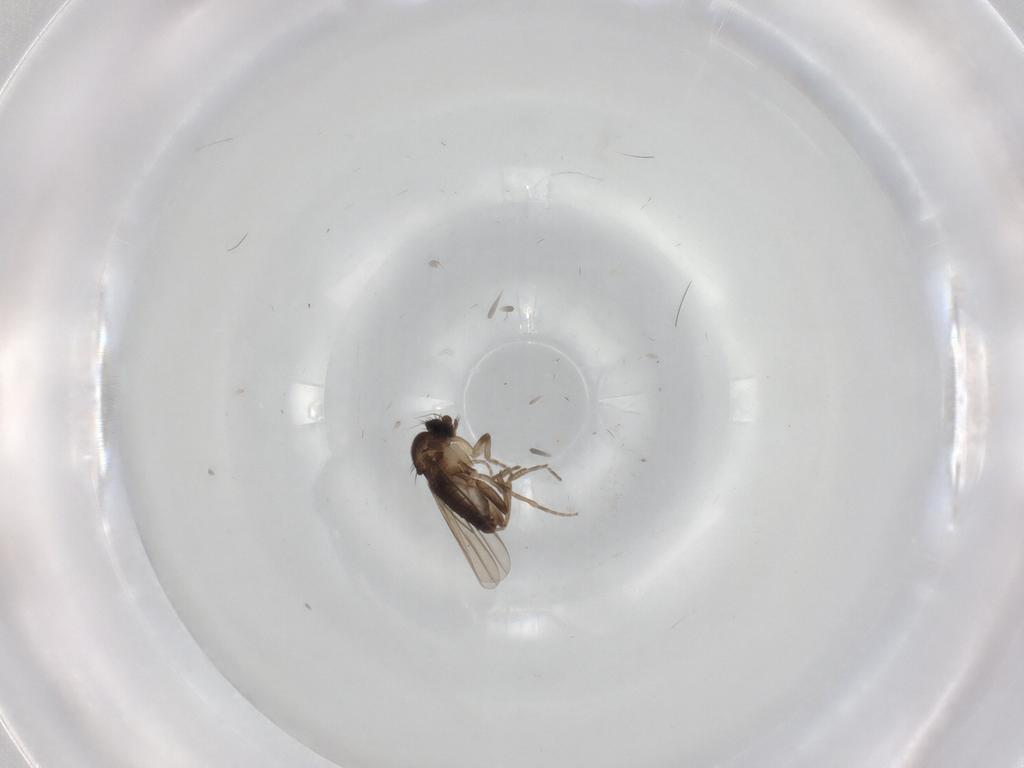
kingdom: Animalia
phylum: Arthropoda
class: Insecta
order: Diptera
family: Phoridae
